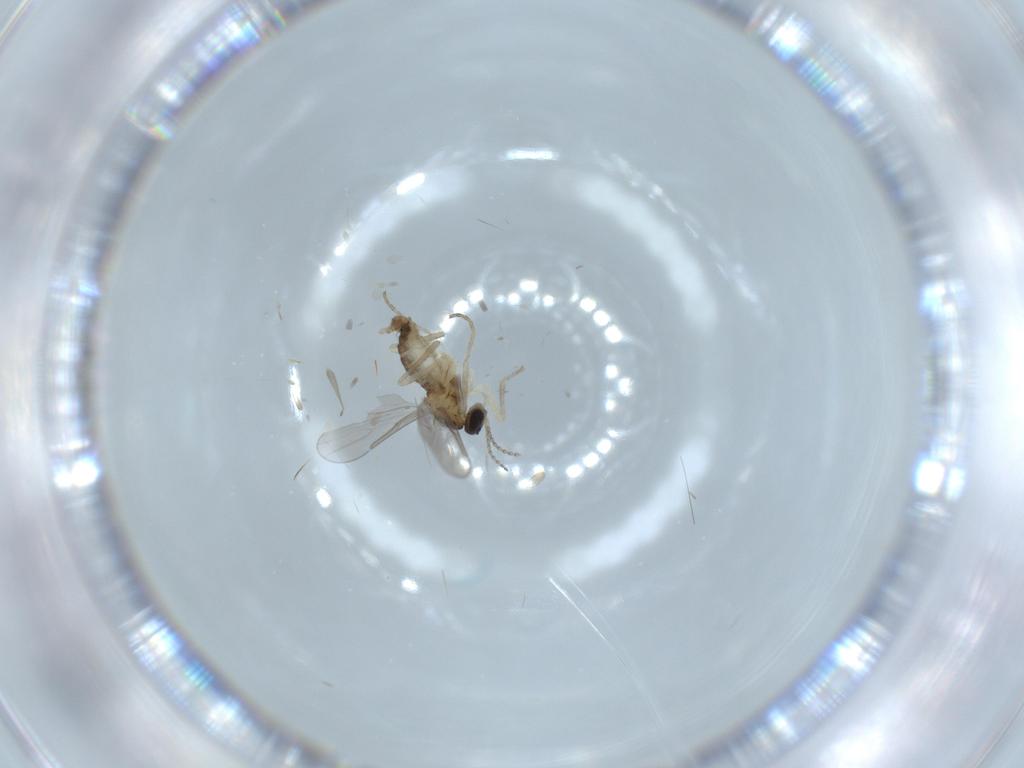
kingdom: Animalia
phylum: Arthropoda
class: Insecta
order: Diptera
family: Cecidomyiidae
